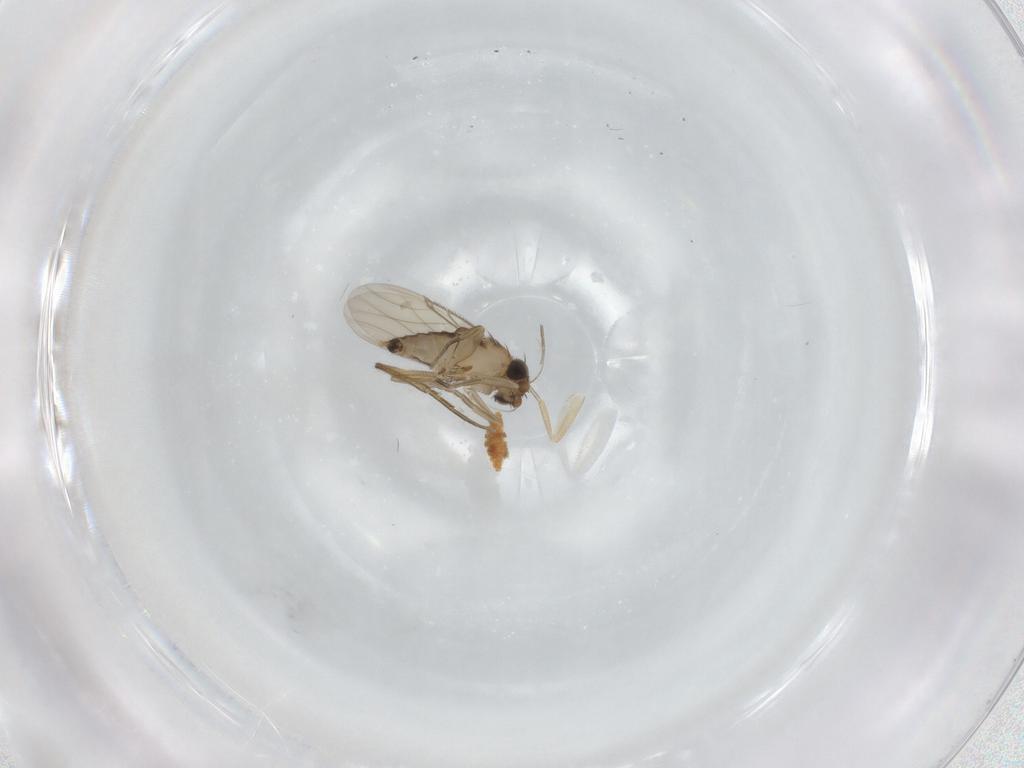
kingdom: Animalia
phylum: Arthropoda
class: Insecta
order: Diptera
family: Phoridae
